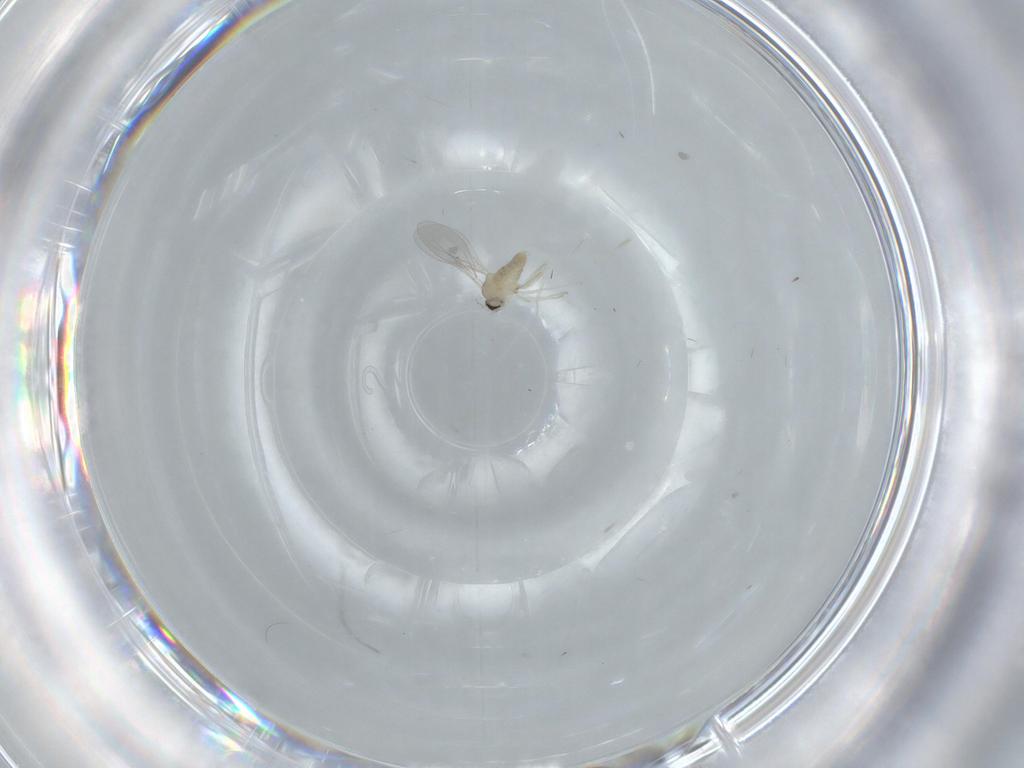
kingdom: Animalia
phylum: Arthropoda
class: Insecta
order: Diptera
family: Cecidomyiidae
